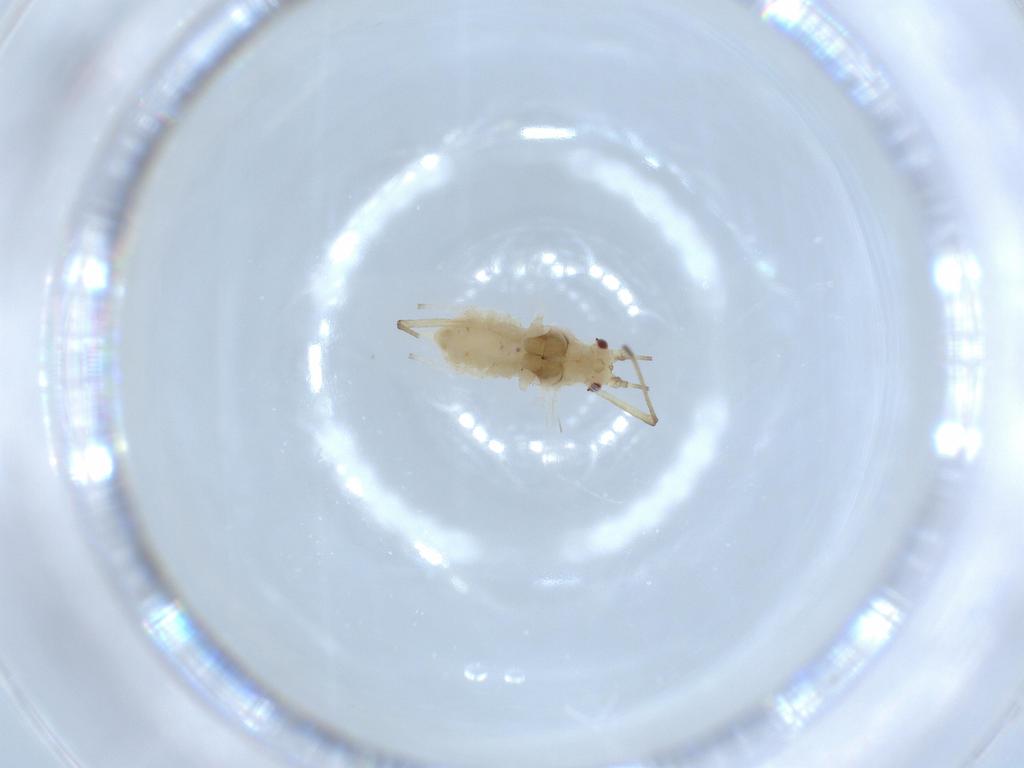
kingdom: Animalia
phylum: Arthropoda
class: Insecta
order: Hemiptera
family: Aphididae
